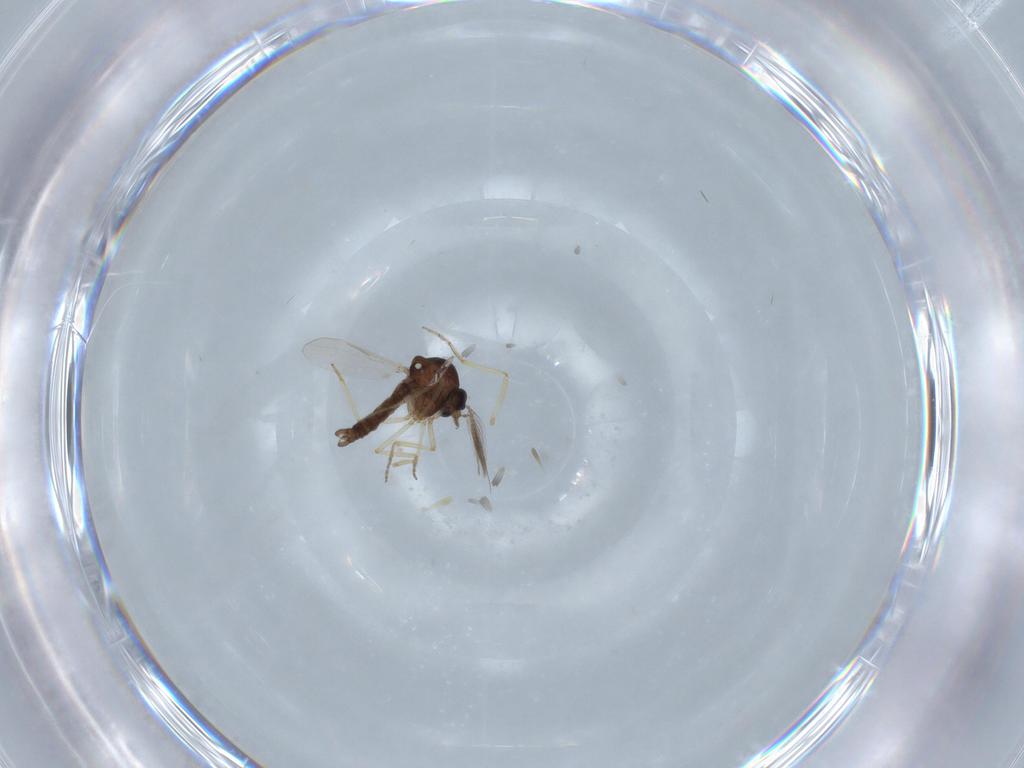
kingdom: Animalia
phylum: Arthropoda
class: Insecta
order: Diptera
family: Ceratopogonidae
